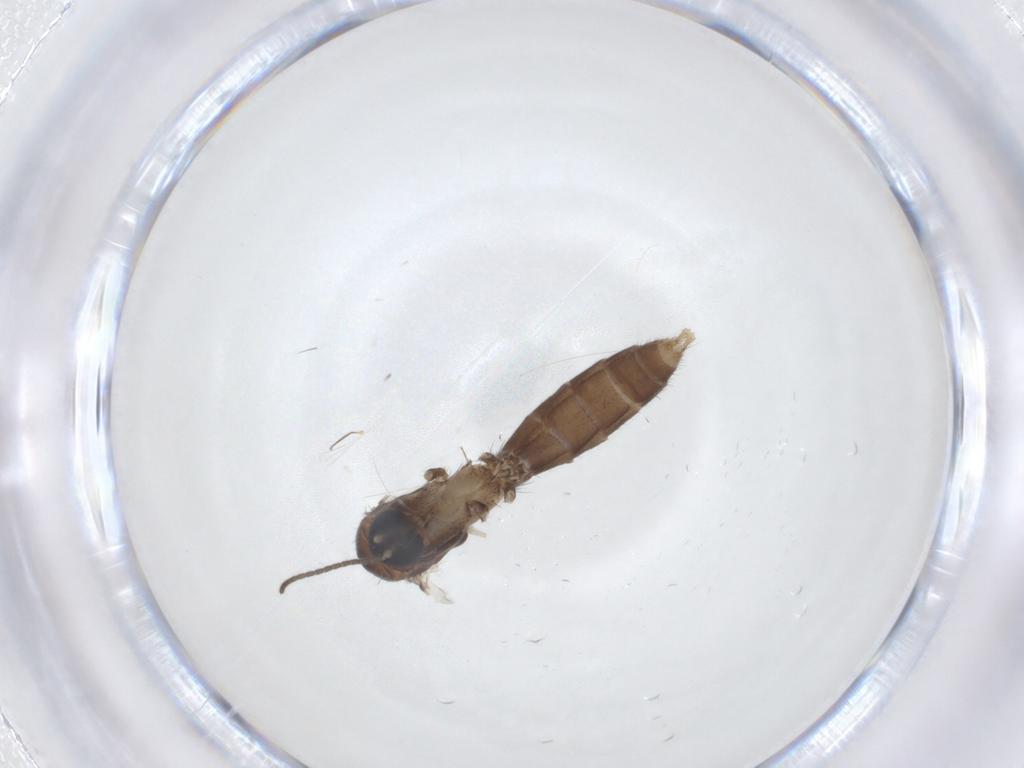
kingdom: Animalia
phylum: Arthropoda
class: Insecta
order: Diptera
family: Mycetophilidae
